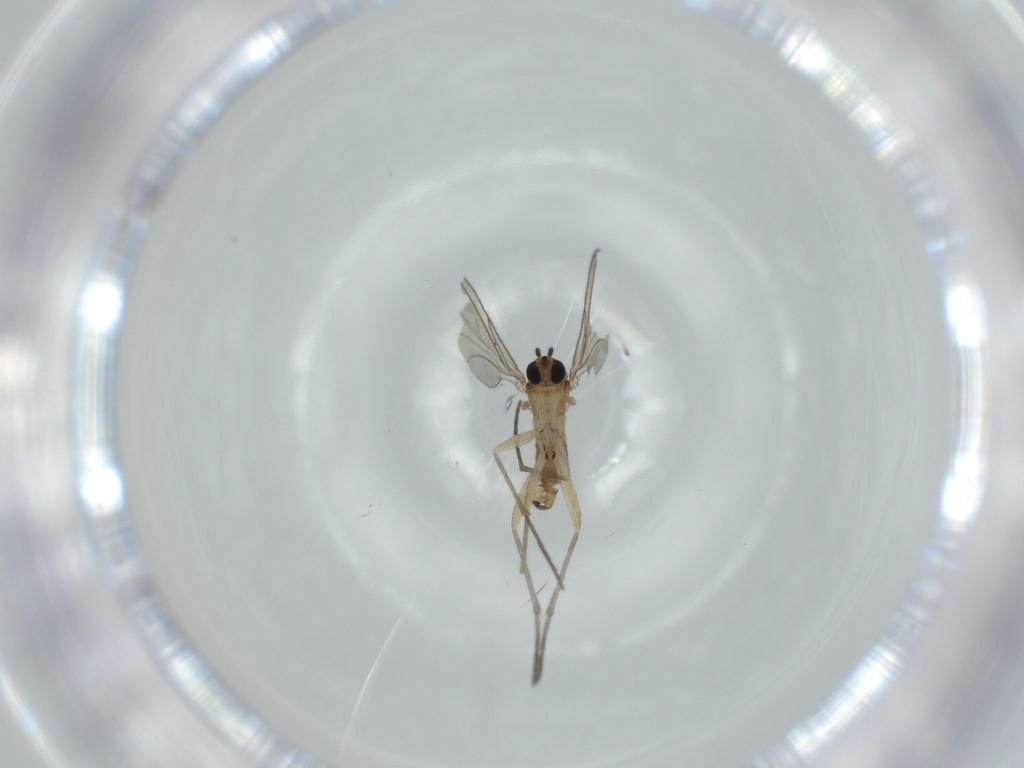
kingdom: Animalia
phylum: Arthropoda
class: Insecta
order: Diptera
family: Sciaridae
